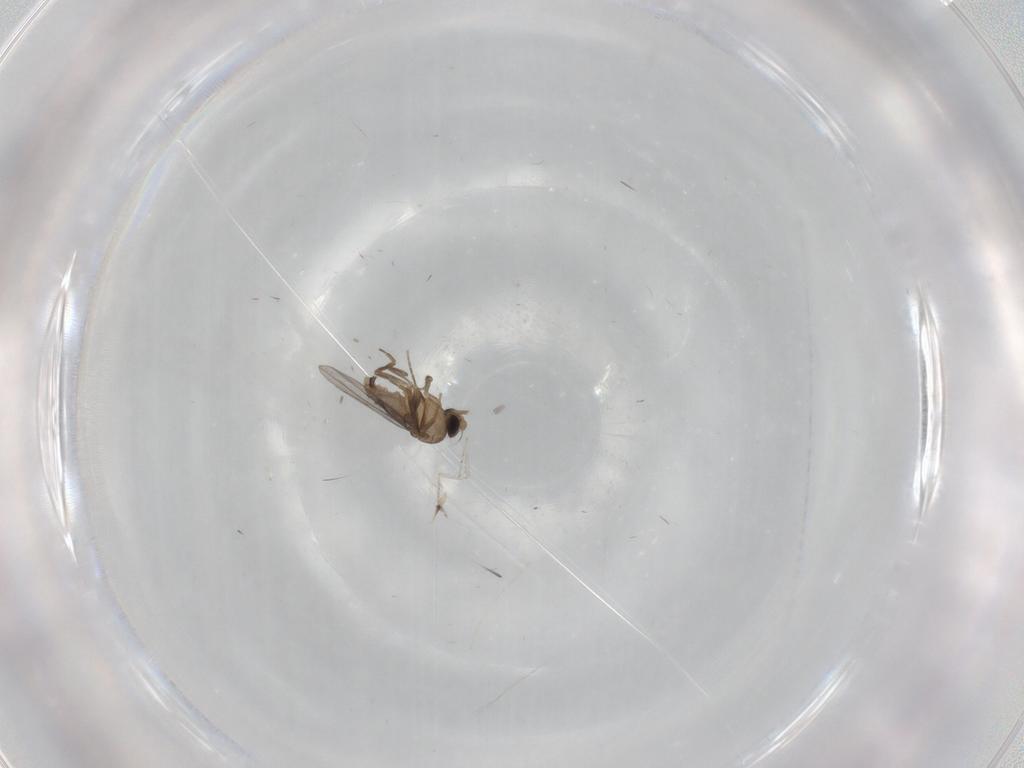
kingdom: Animalia
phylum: Arthropoda
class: Insecta
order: Diptera
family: Cecidomyiidae
